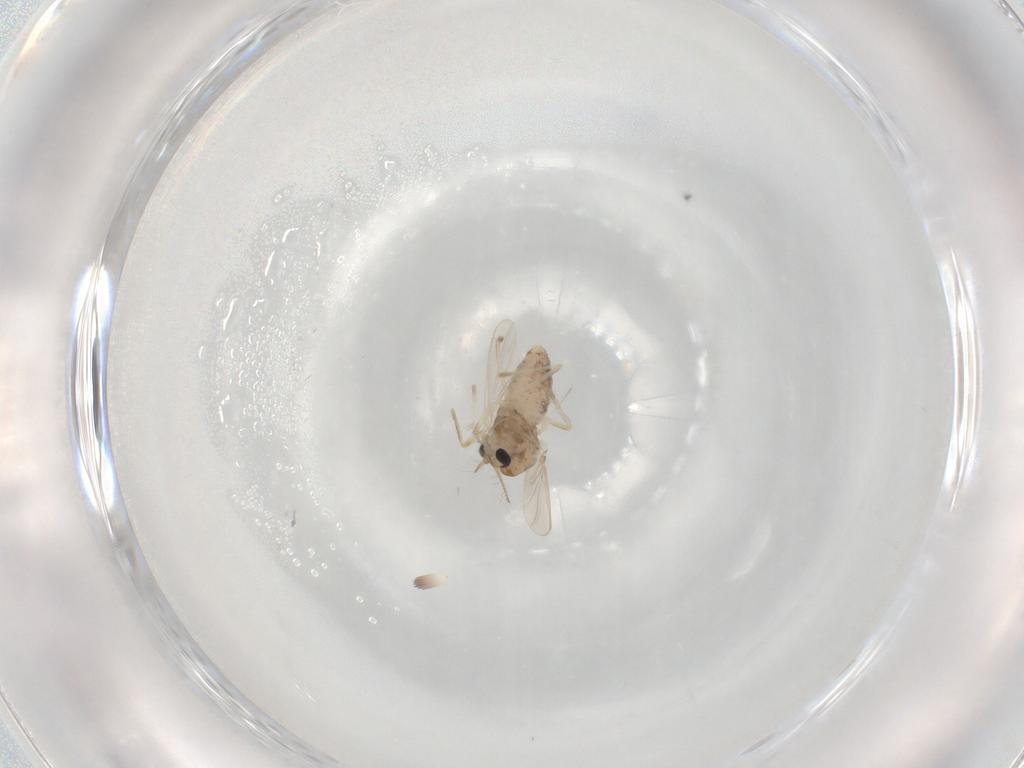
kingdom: Animalia
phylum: Arthropoda
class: Insecta
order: Diptera
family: Chironomidae
